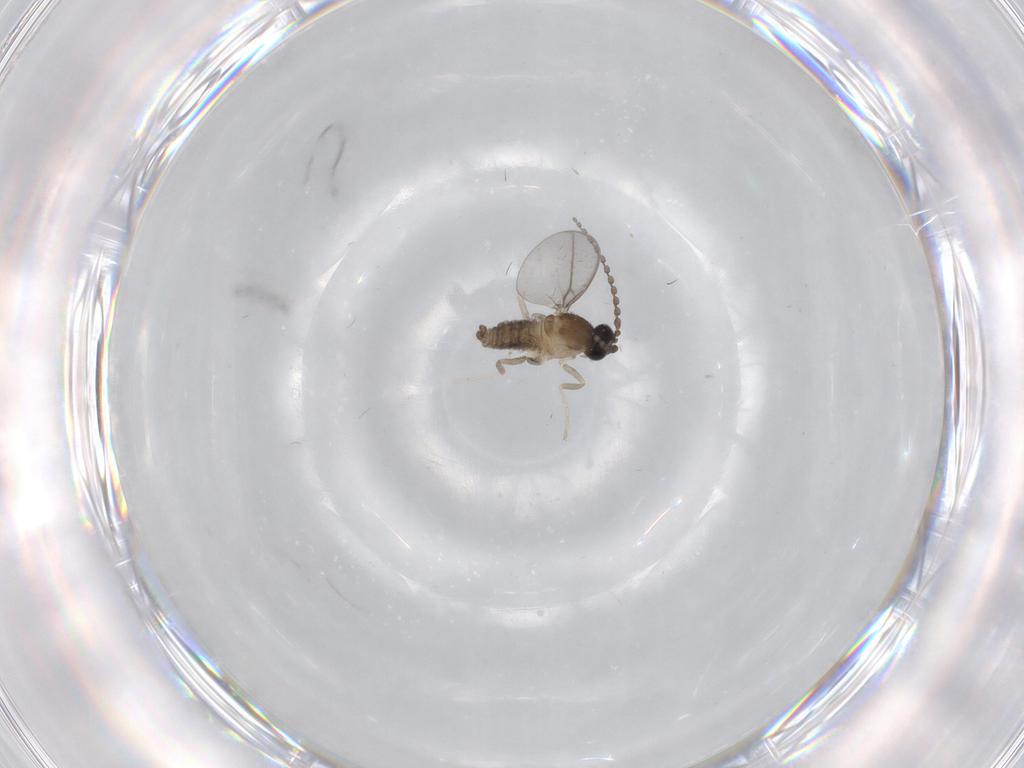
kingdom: Animalia
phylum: Arthropoda
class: Insecta
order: Diptera
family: Cecidomyiidae
